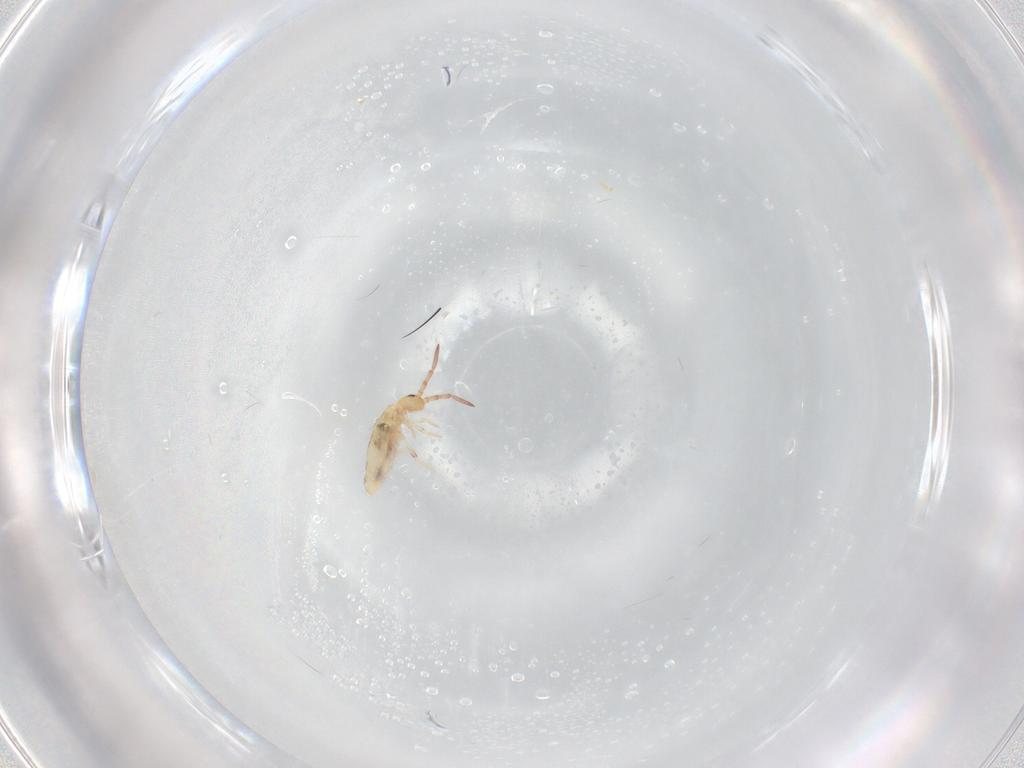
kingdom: Animalia
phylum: Arthropoda
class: Collembola
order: Poduromorpha
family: Hypogastruridae
